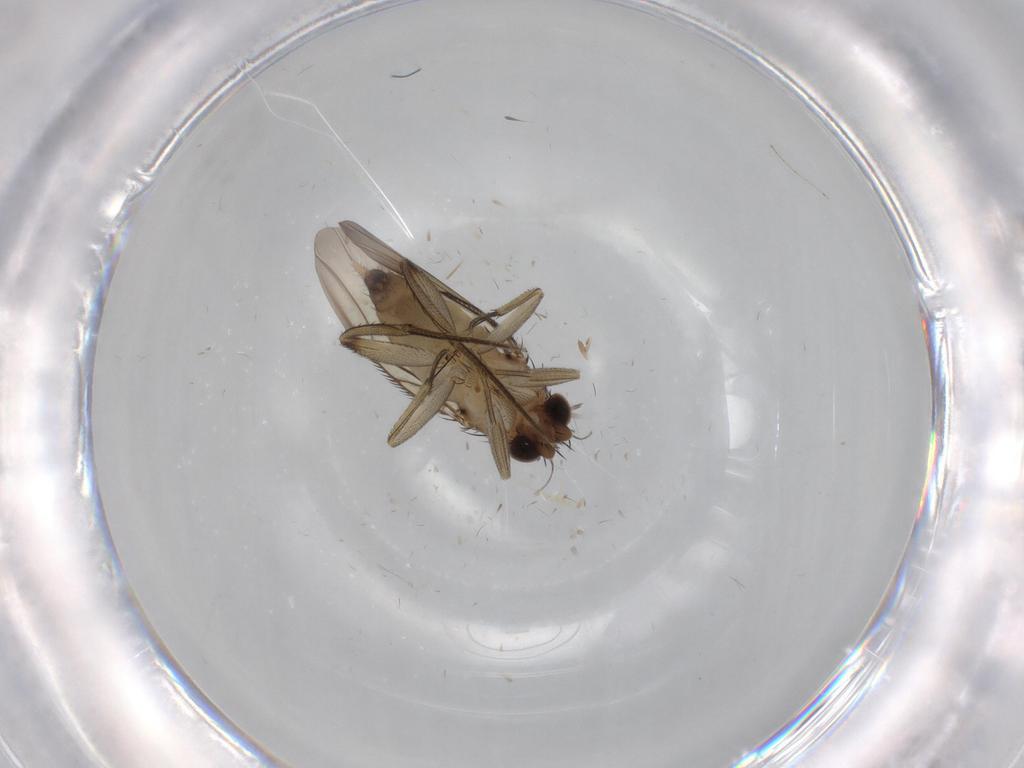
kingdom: Animalia
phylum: Arthropoda
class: Insecta
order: Diptera
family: Phoridae
